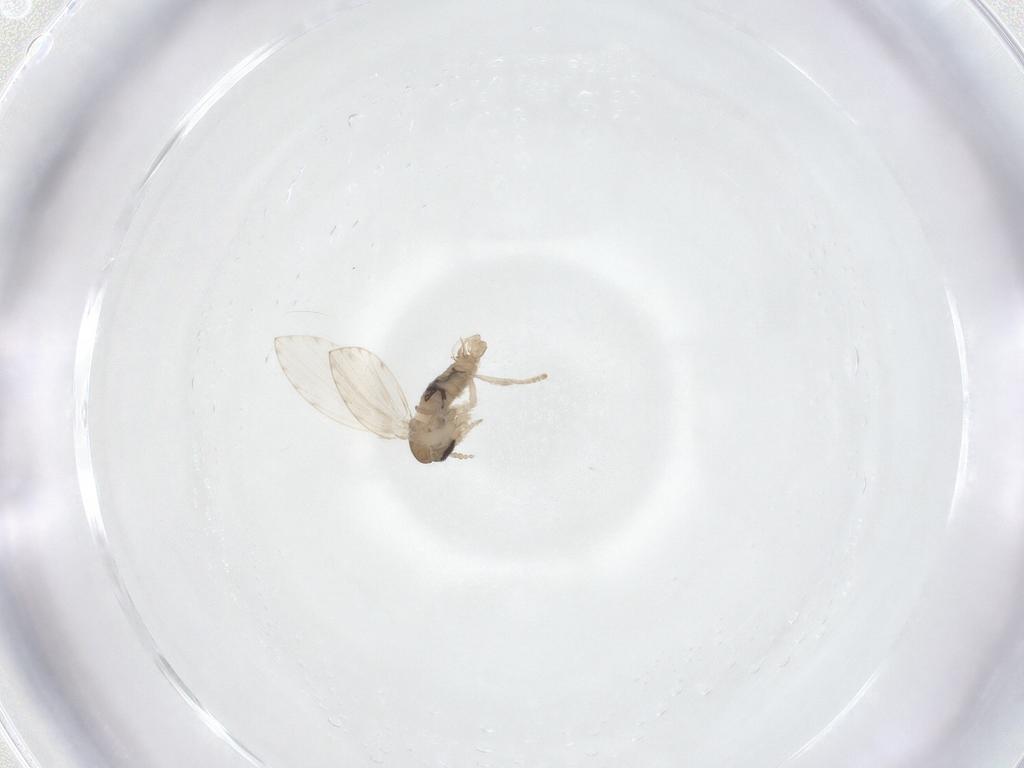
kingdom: Animalia
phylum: Arthropoda
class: Insecta
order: Diptera
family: Psychodidae
